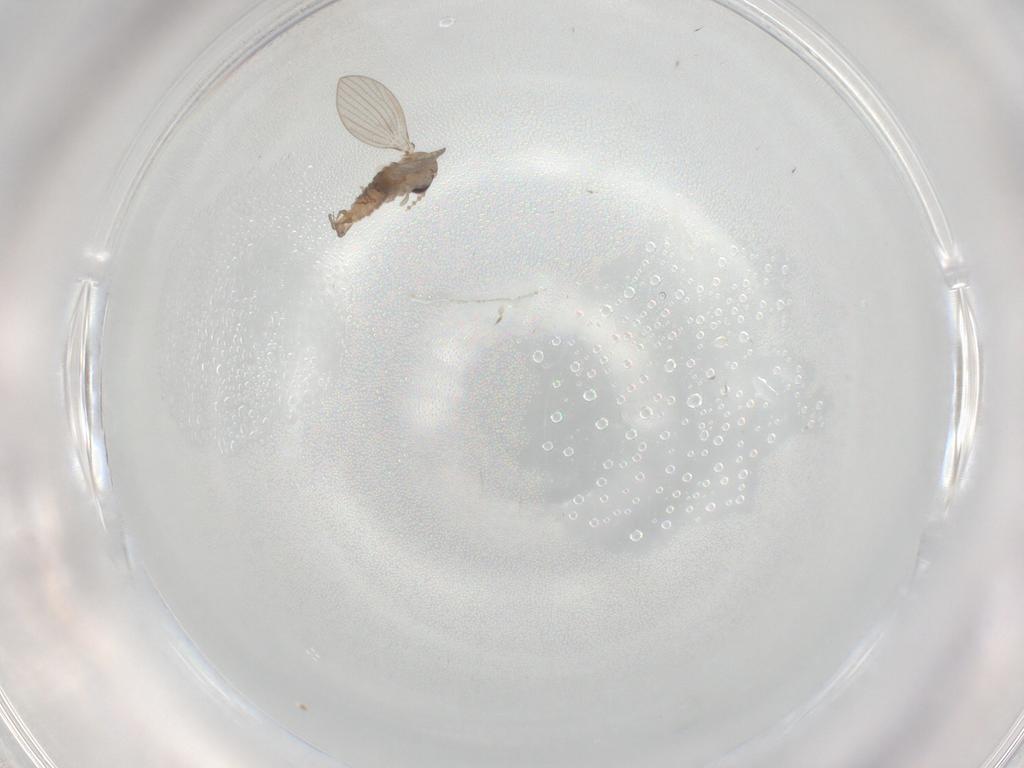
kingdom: Animalia
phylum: Arthropoda
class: Insecta
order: Diptera
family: Psychodidae
